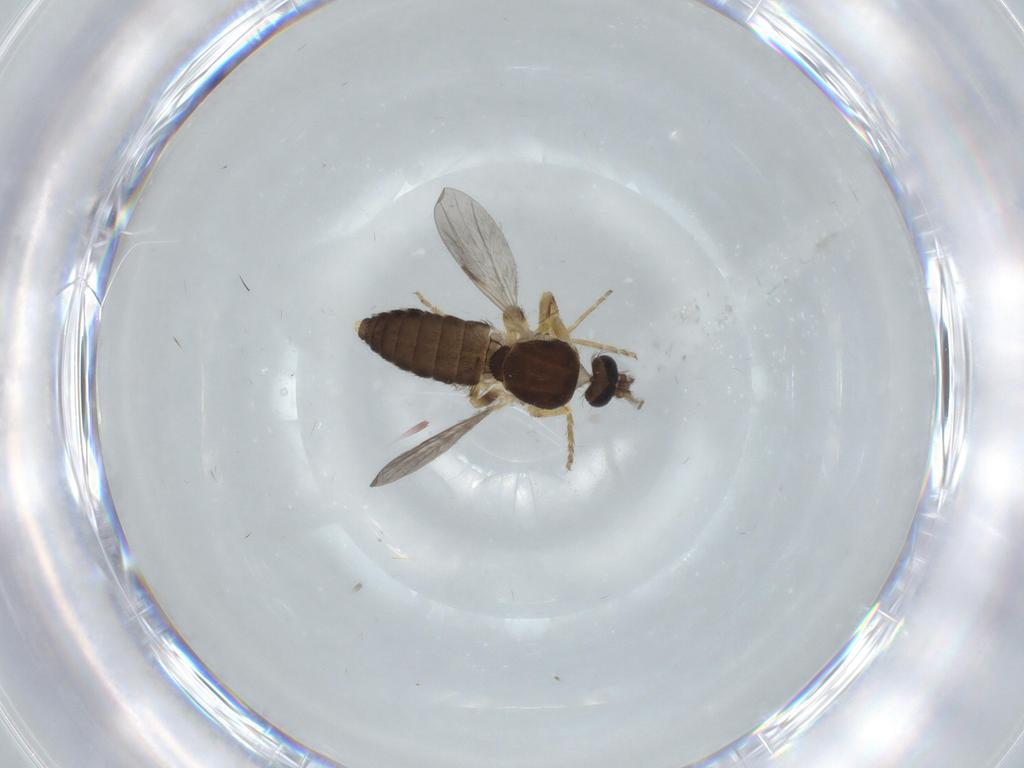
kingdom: Animalia
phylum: Arthropoda
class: Insecta
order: Diptera
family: Ceratopogonidae
